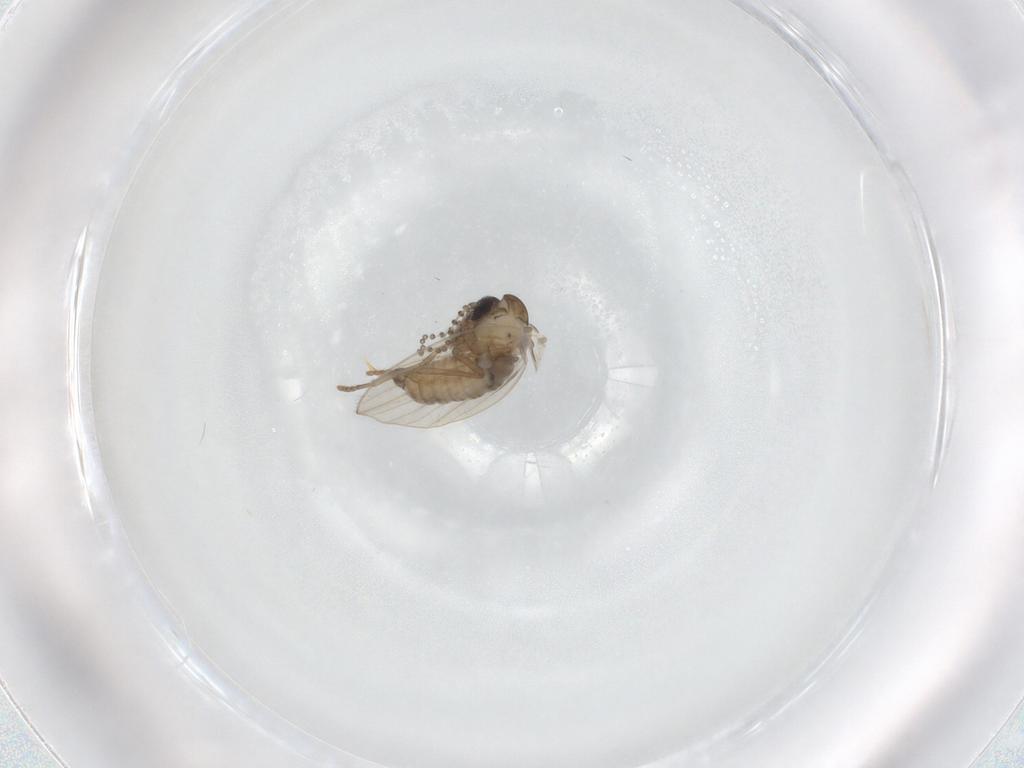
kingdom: Animalia
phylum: Arthropoda
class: Insecta
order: Diptera
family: Chironomidae
